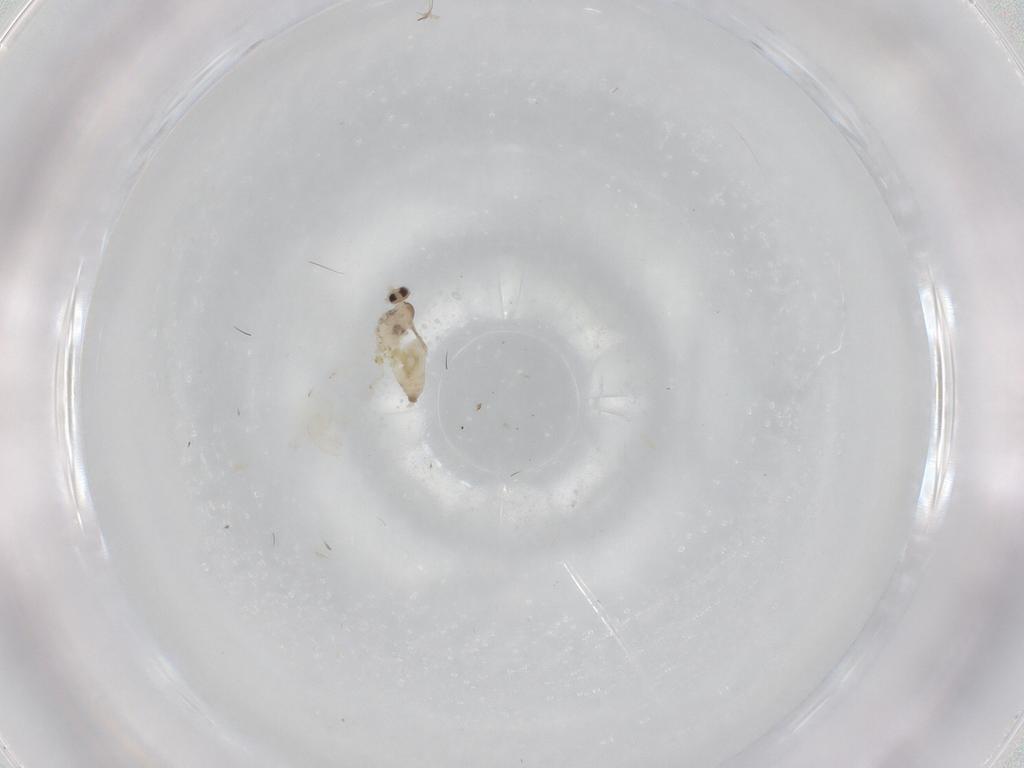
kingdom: Animalia
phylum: Arthropoda
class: Insecta
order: Diptera
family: Cecidomyiidae
